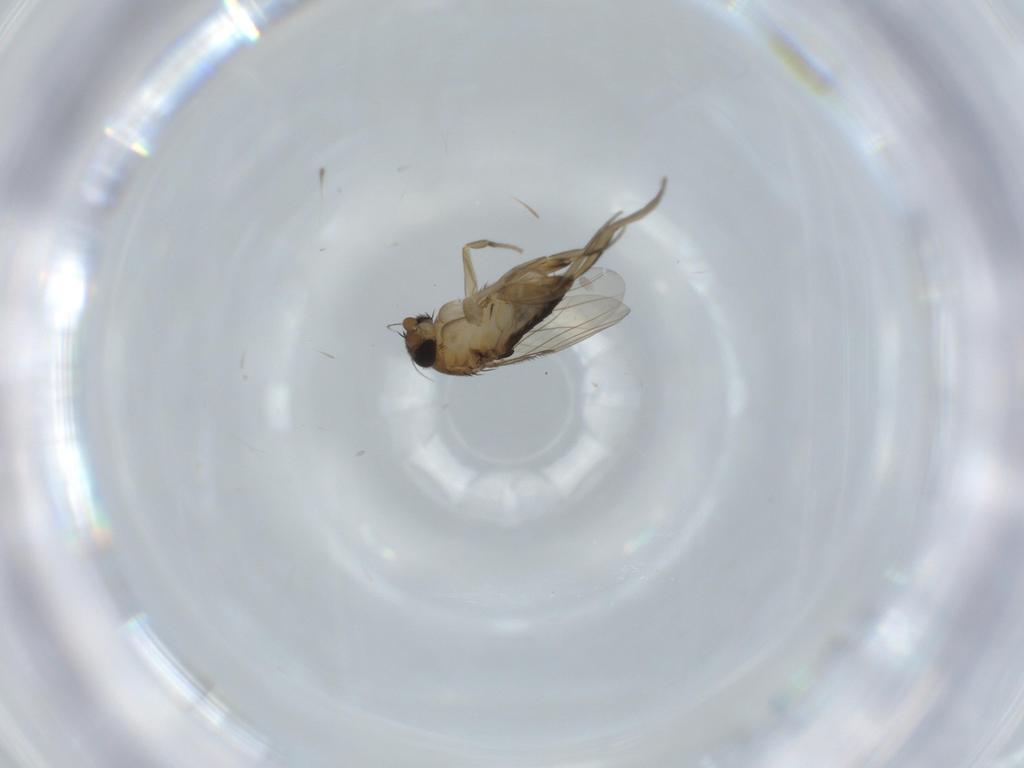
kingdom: Animalia
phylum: Arthropoda
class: Insecta
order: Diptera
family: Phoridae
